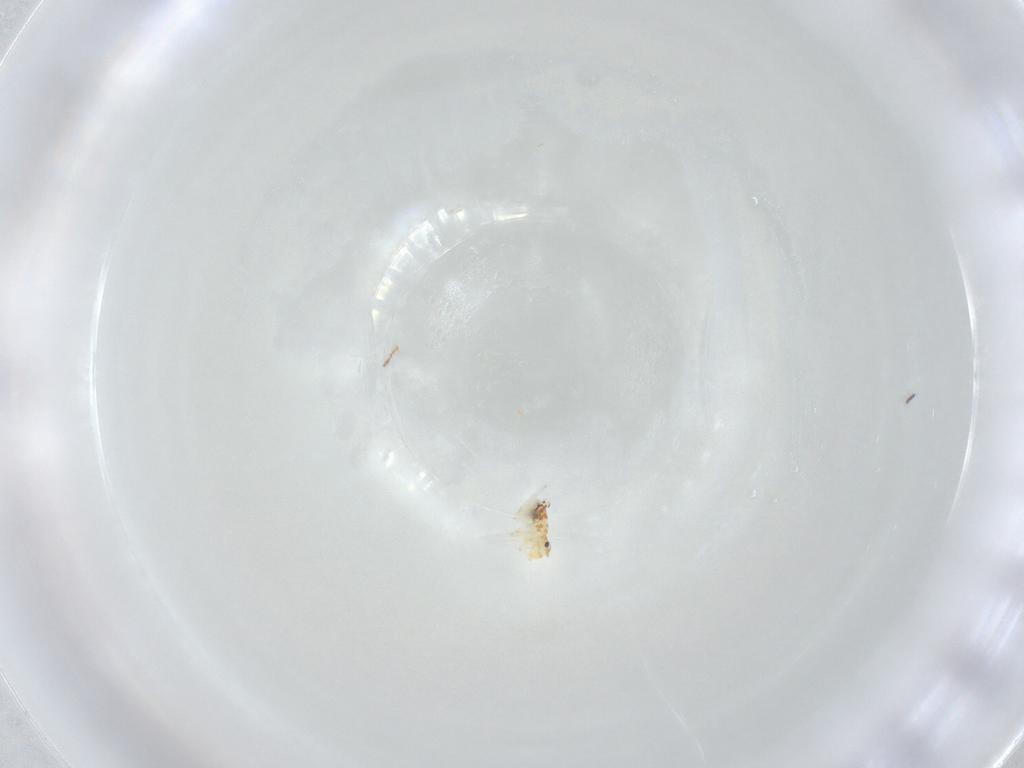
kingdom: Animalia
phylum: Arthropoda
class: Collembola
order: Symphypleona
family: Bourletiellidae
